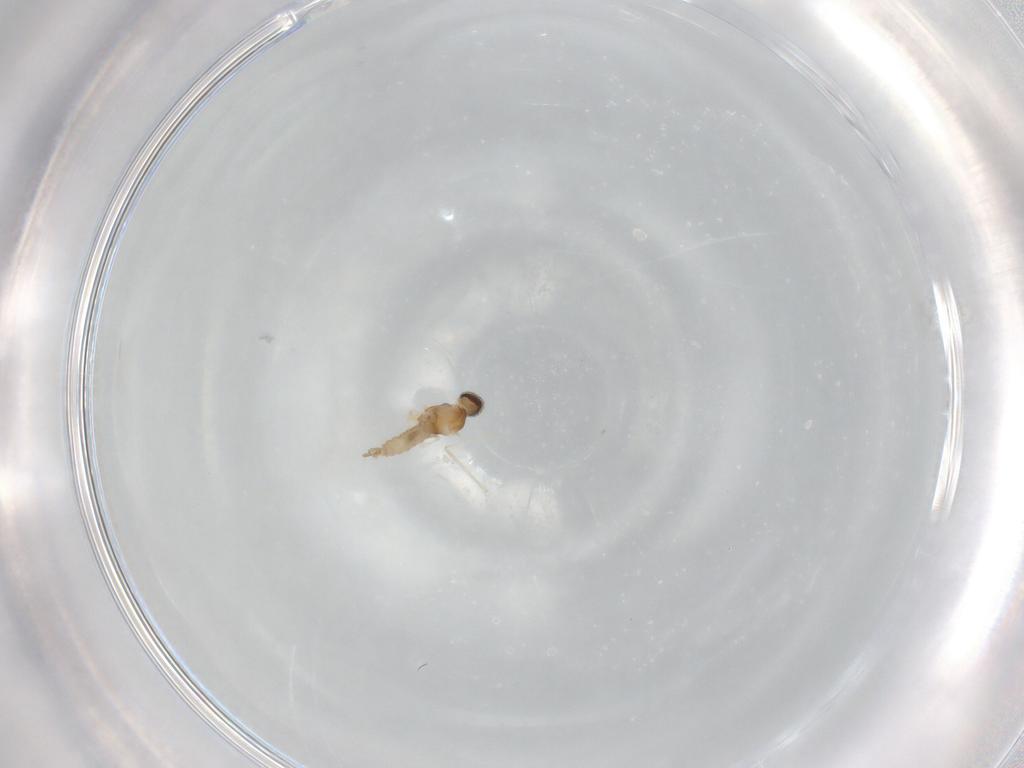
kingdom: Animalia
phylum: Arthropoda
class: Insecta
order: Diptera
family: Cecidomyiidae
